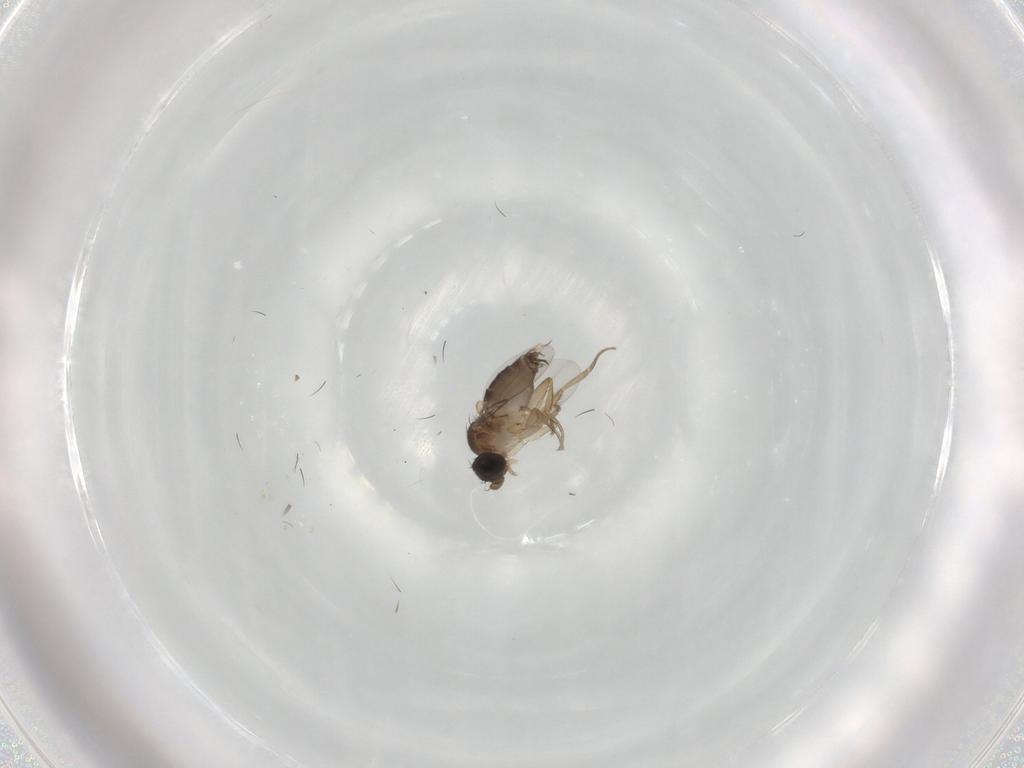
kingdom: Animalia
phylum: Arthropoda
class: Insecta
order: Diptera
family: Phoridae
